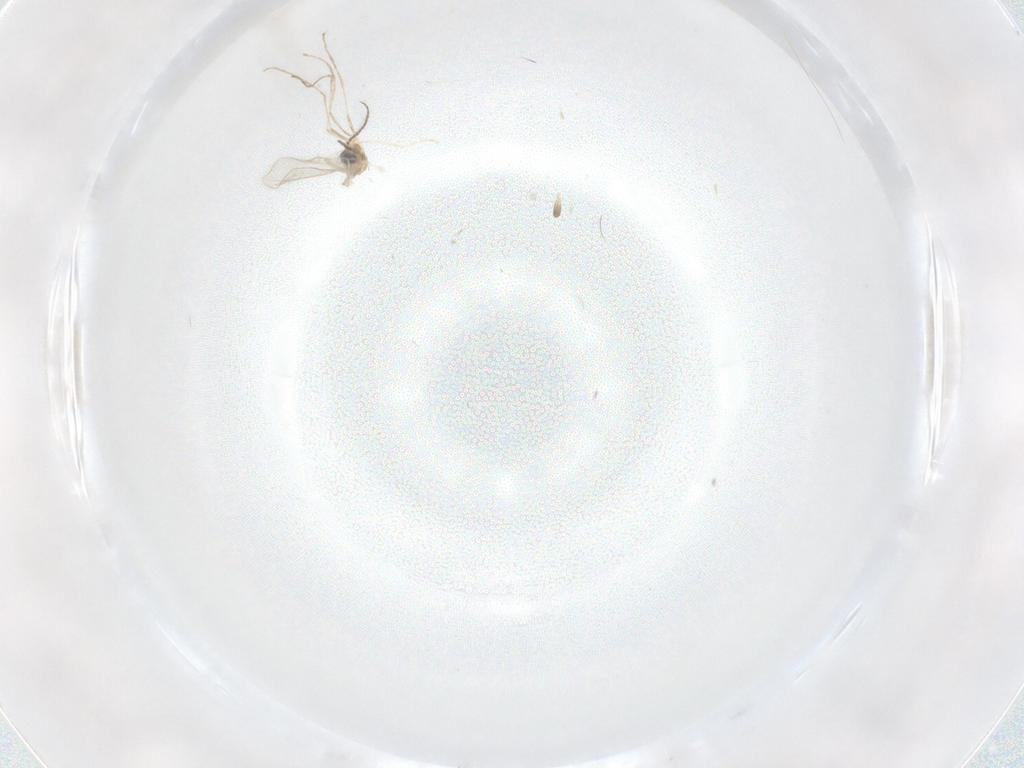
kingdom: Animalia
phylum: Arthropoda
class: Insecta
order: Diptera
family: Cecidomyiidae
